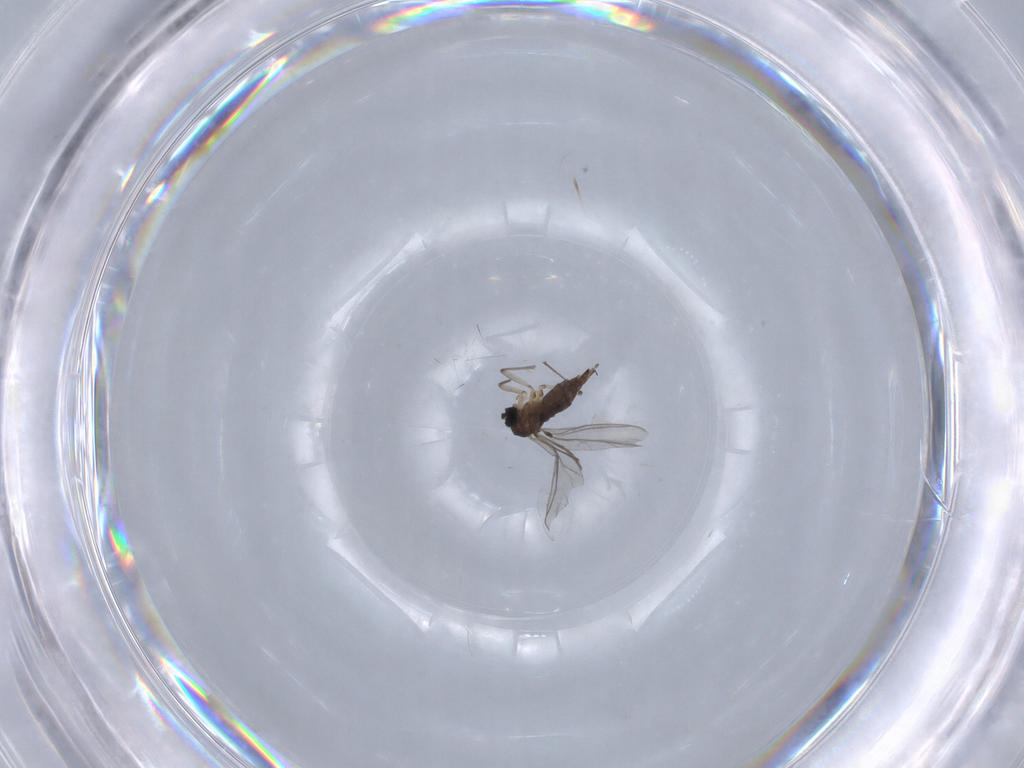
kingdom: Animalia
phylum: Arthropoda
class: Insecta
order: Diptera
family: Sciaridae
